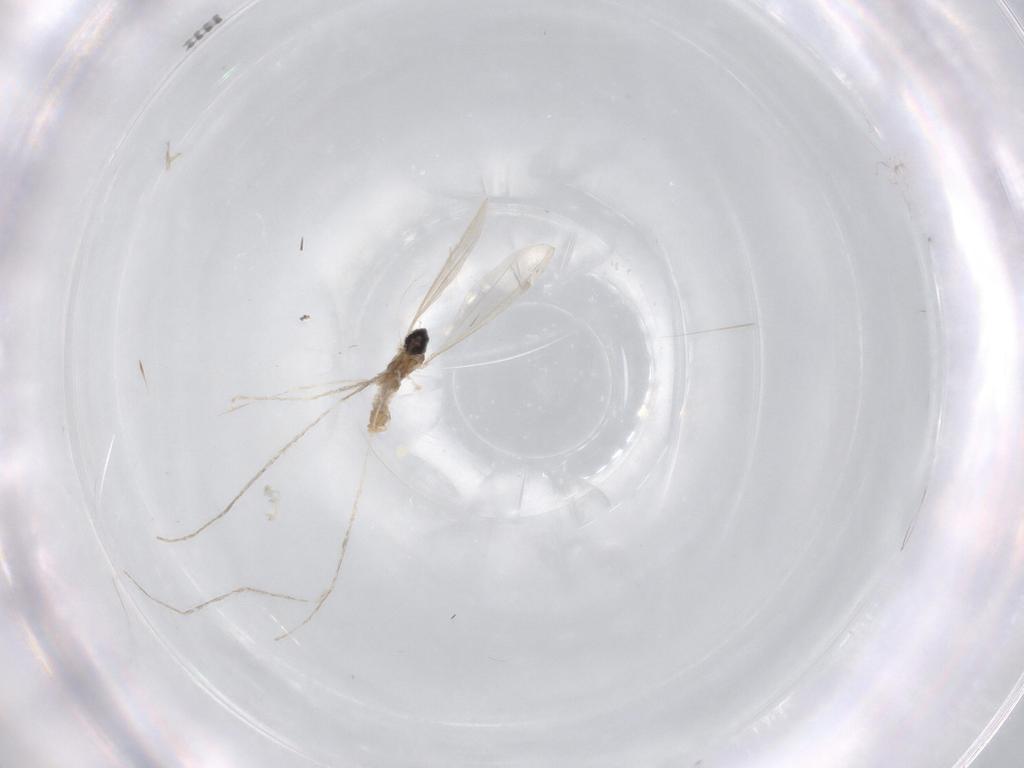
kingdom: Animalia
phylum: Arthropoda
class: Insecta
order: Diptera
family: Cecidomyiidae
